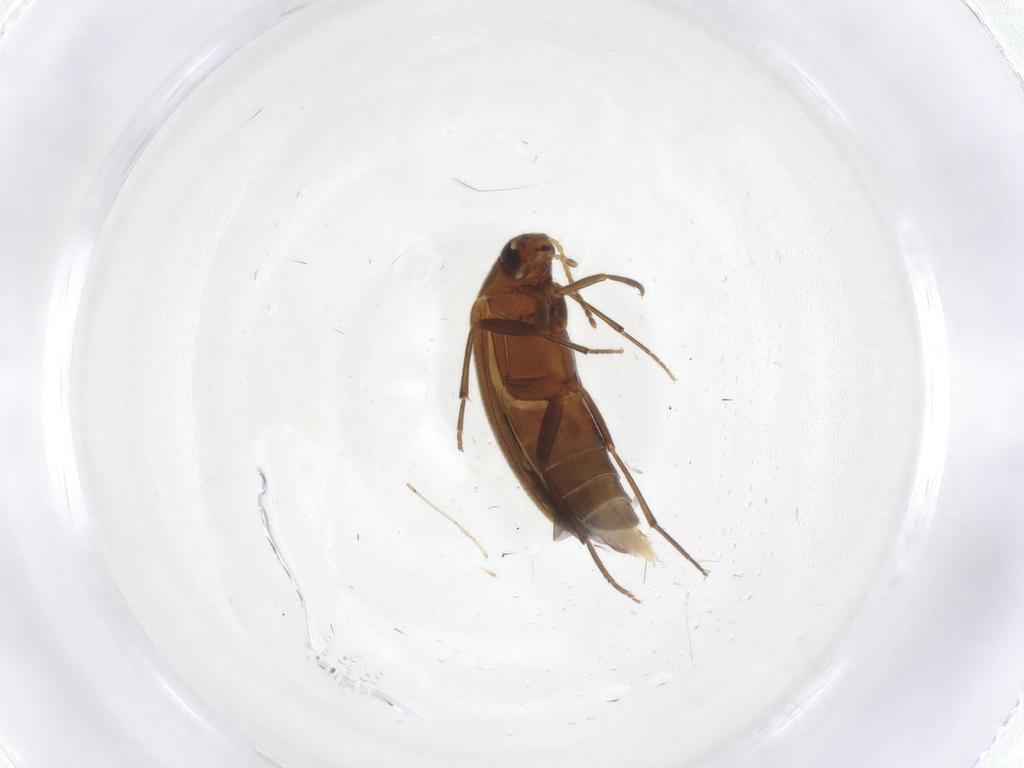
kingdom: Animalia
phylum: Arthropoda
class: Insecta
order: Coleoptera
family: Melandryidae
